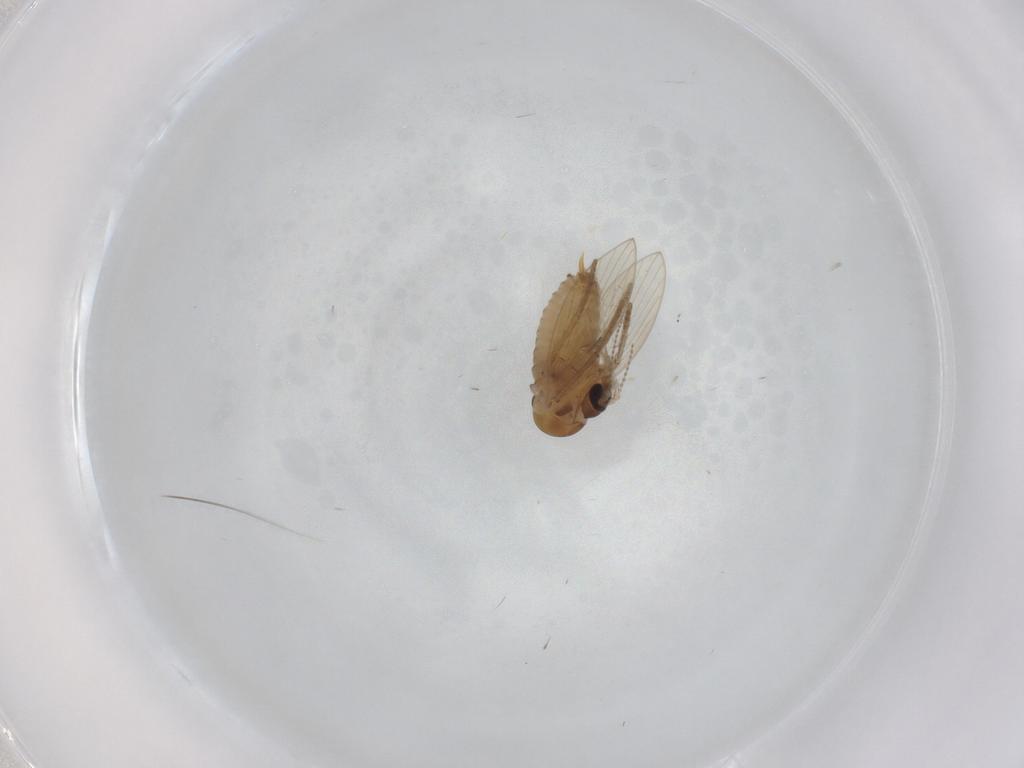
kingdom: Animalia
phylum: Arthropoda
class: Insecta
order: Diptera
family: Psychodidae
